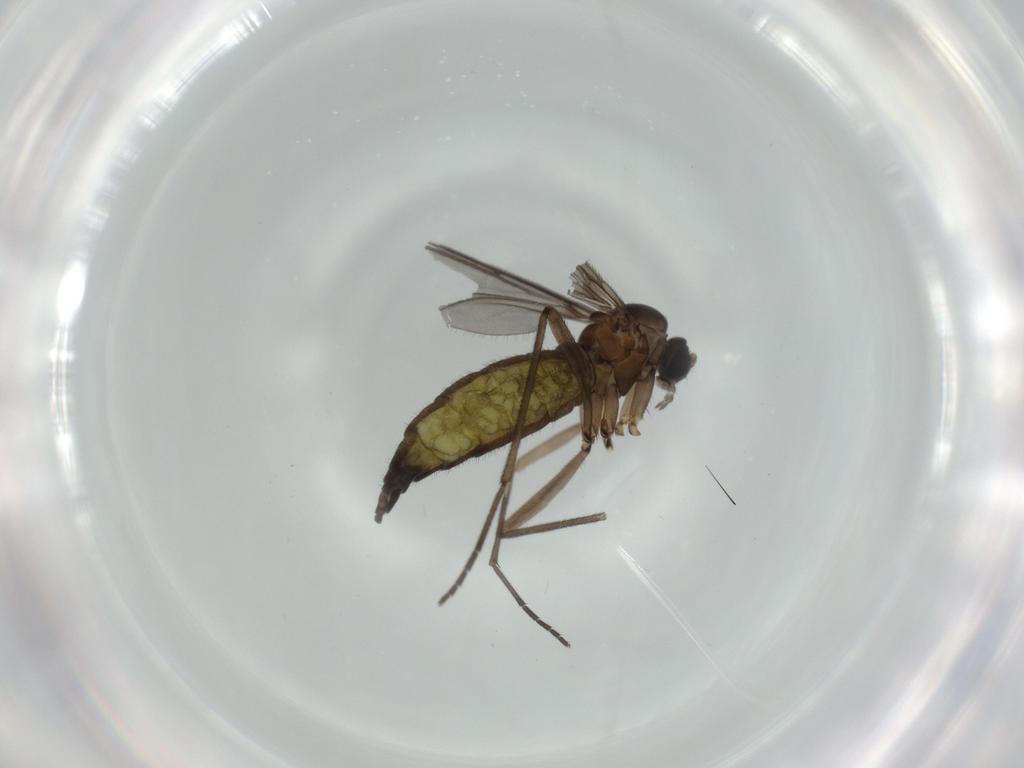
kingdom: Animalia
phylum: Arthropoda
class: Insecta
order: Diptera
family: Sciaridae
